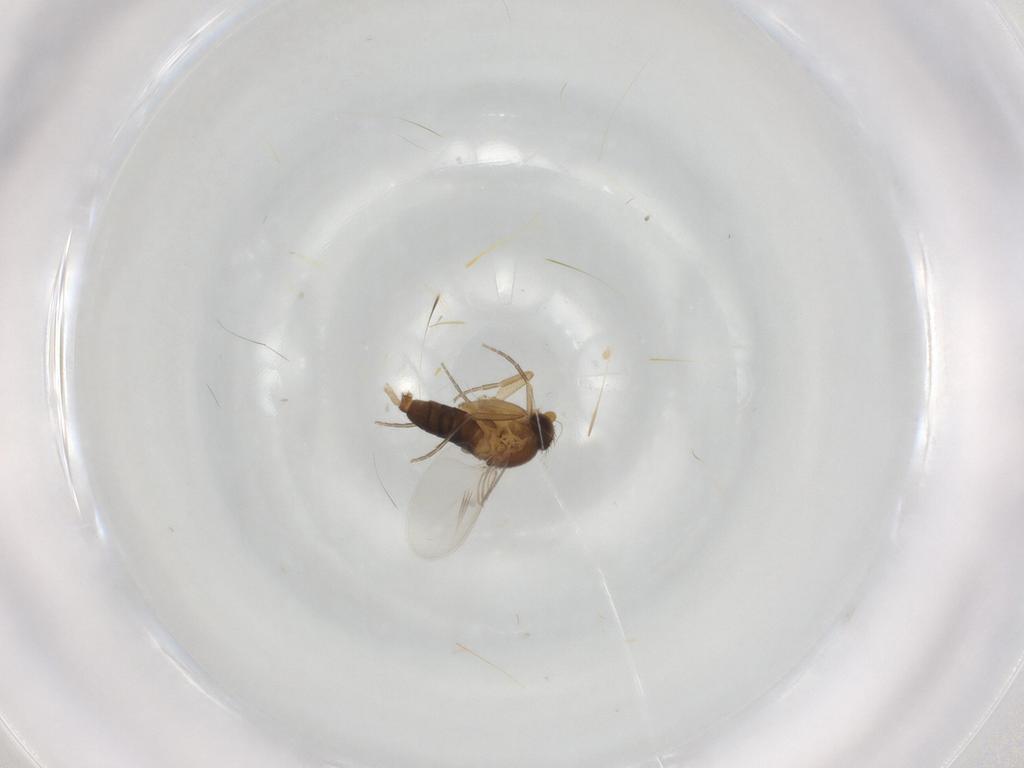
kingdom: Animalia
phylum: Arthropoda
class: Insecta
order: Diptera
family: Phoridae
